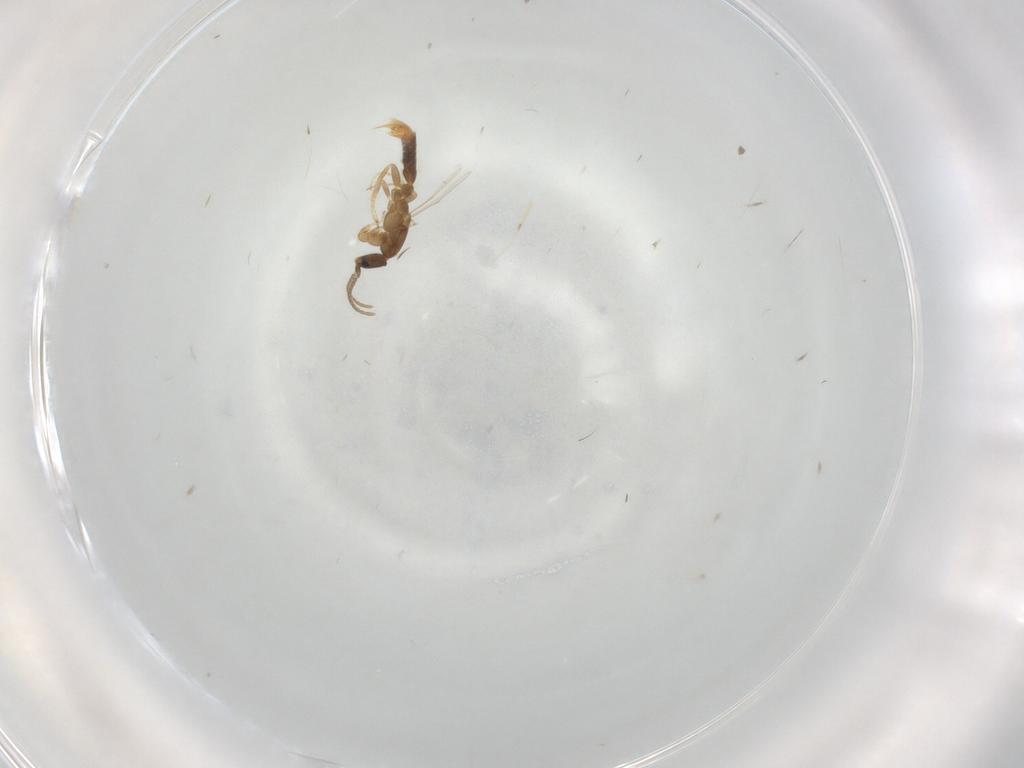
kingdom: Animalia
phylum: Arthropoda
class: Insecta
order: Hymenoptera
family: Formicidae
